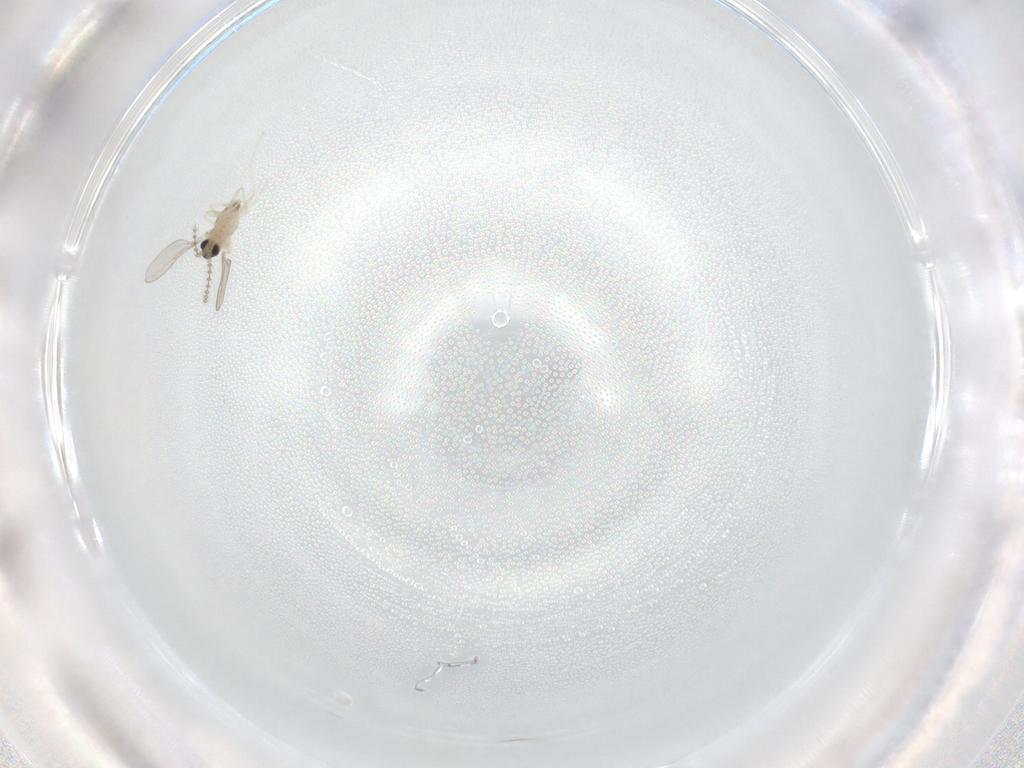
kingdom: Animalia
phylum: Arthropoda
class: Insecta
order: Diptera
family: Cecidomyiidae
